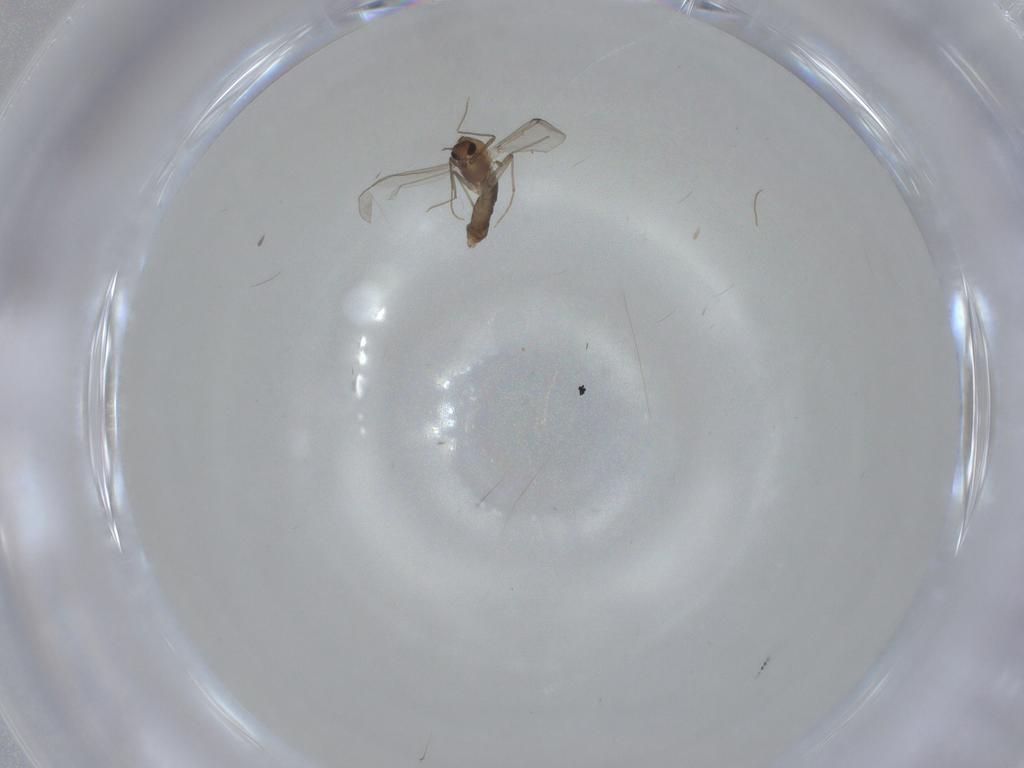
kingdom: Animalia
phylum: Arthropoda
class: Insecta
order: Diptera
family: Chironomidae
